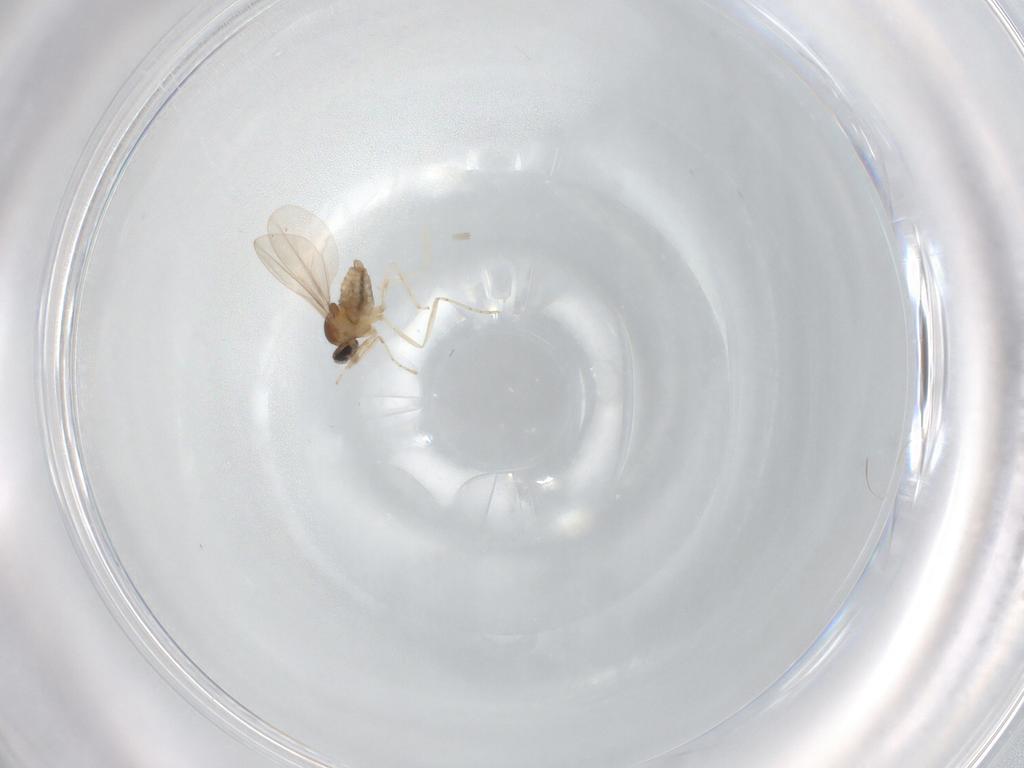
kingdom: Animalia
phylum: Arthropoda
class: Insecta
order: Diptera
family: Cecidomyiidae
